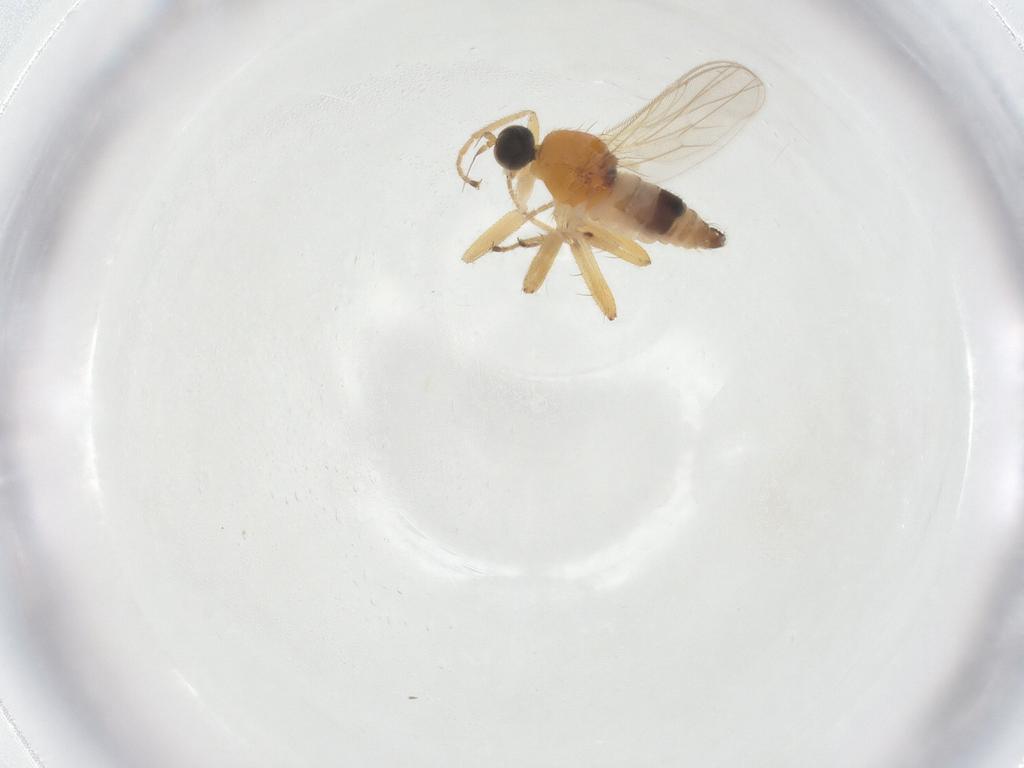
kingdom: Animalia
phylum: Arthropoda
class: Insecta
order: Diptera
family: Hybotidae
